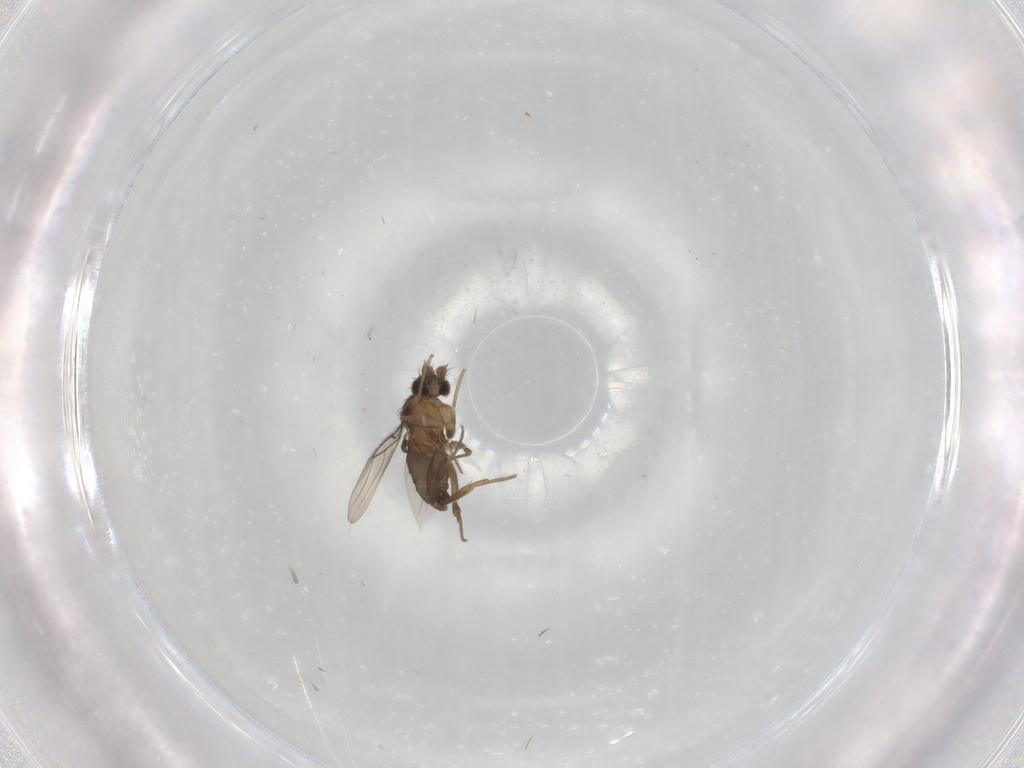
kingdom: Animalia
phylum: Arthropoda
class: Insecta
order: Diptera
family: Phoridae
